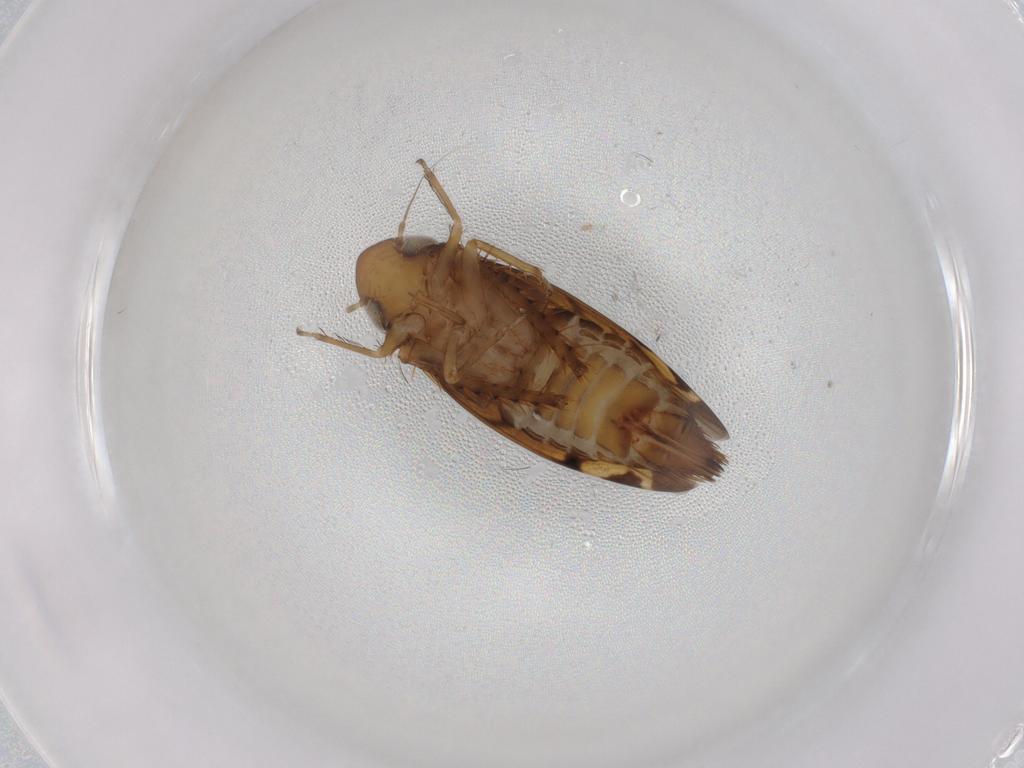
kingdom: Animalia
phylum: Arthropoda
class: Insecta
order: Hemiptera
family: Cicadellidae
